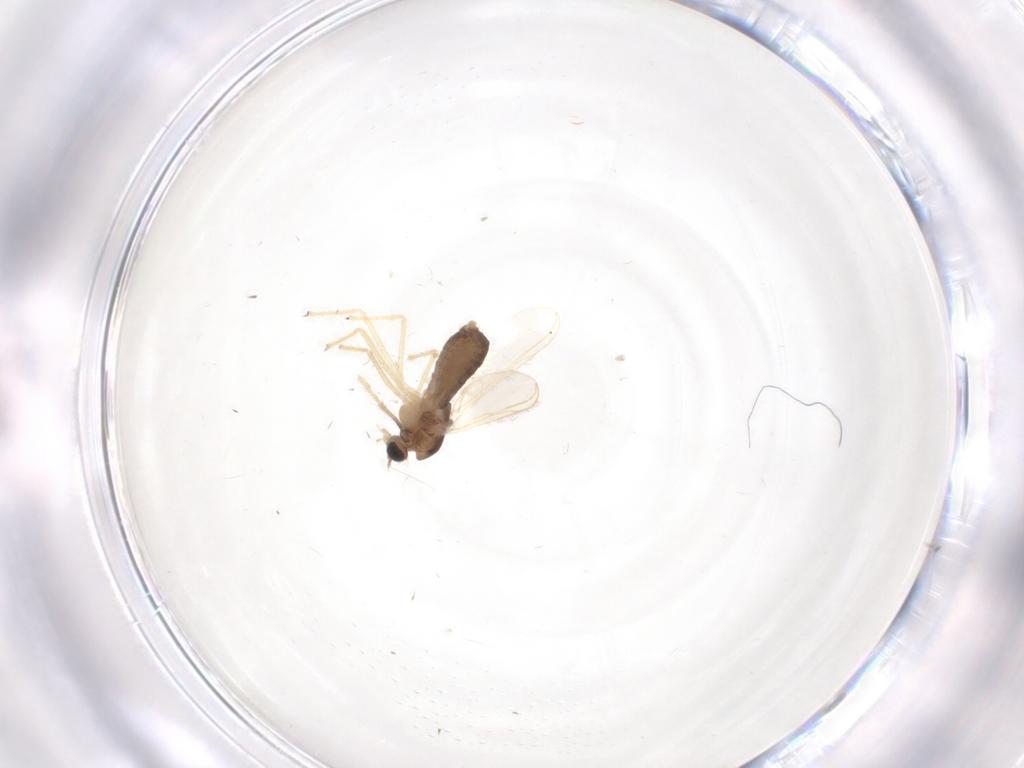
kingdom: Animalia
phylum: Arthropoda
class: Insecta
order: Diptera
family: Chironomidae
